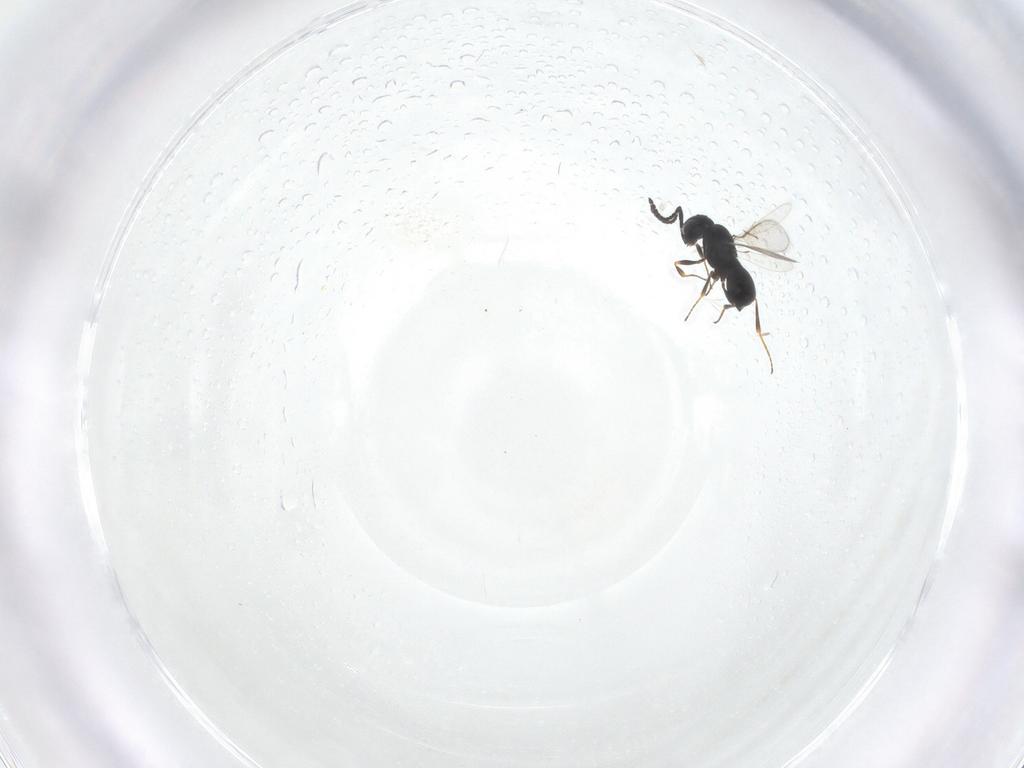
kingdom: Animalia
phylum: Arthropoda
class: Insecta
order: Hymenoptera
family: Scelionidae
